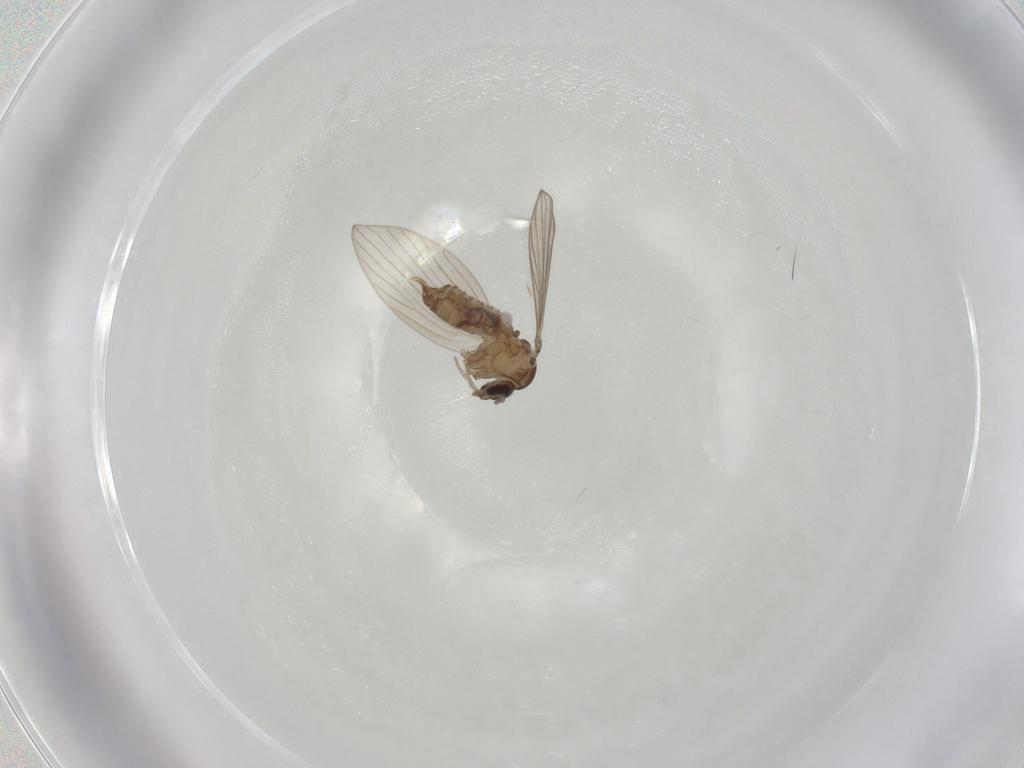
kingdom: Animalia
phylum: Arthropoda
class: Insecta
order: Diptera
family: Psychodidae
